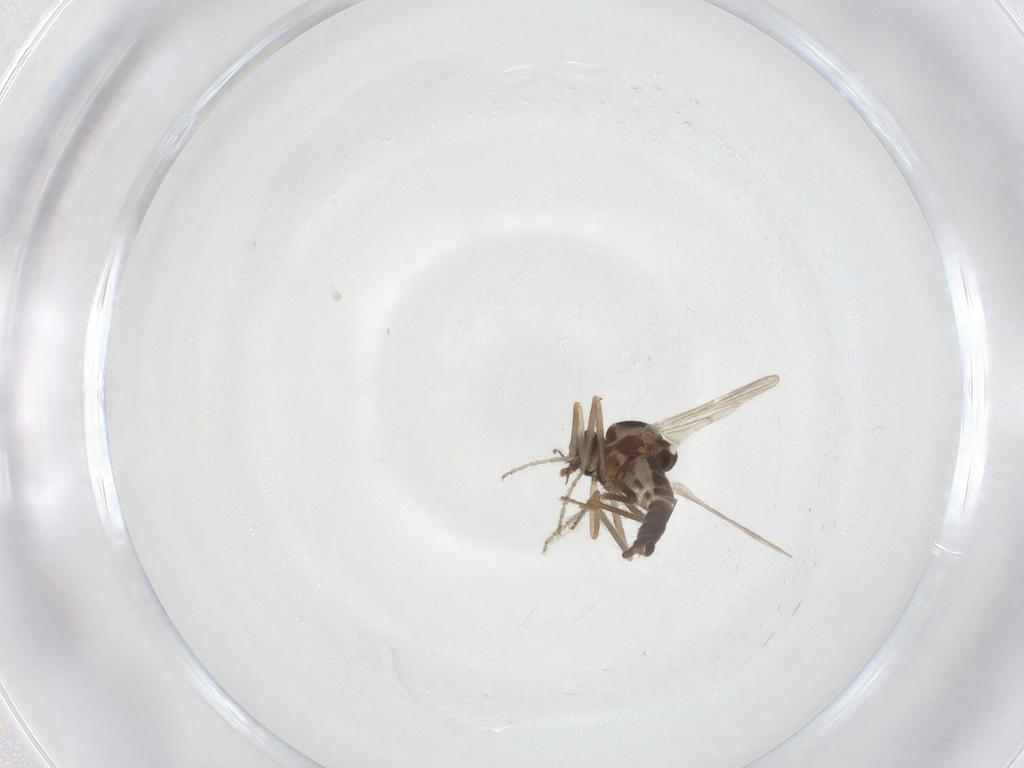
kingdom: Animalia
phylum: Arthropoda
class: Insecta
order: Diptera
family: Ceratopogonidae
